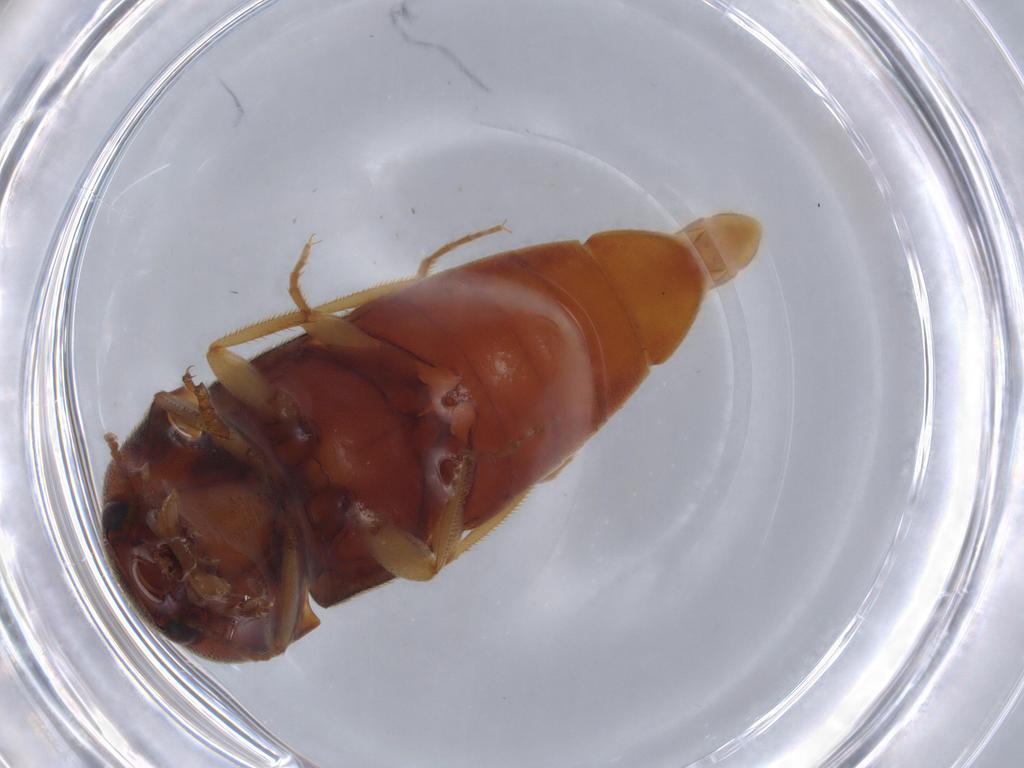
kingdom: Animalia
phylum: Arthropoda
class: Insecta
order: Coleoptera
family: Elateridae
